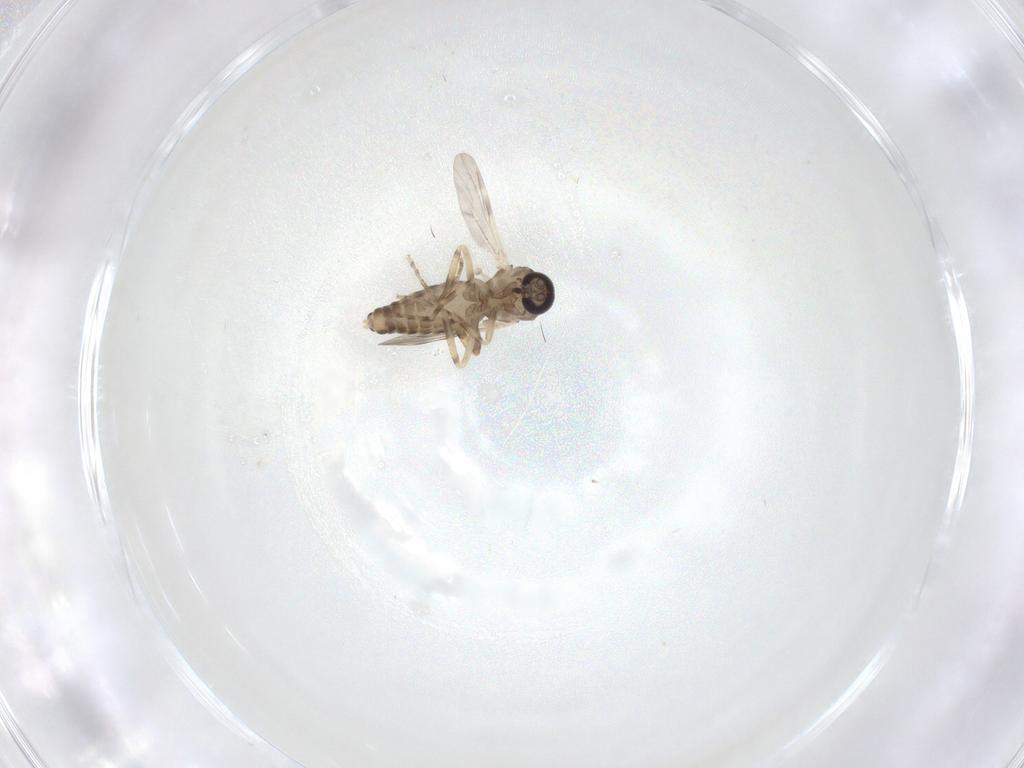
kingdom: Animalia
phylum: Arthropoda
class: Insecta
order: Diptera
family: Ceratopogonidae
